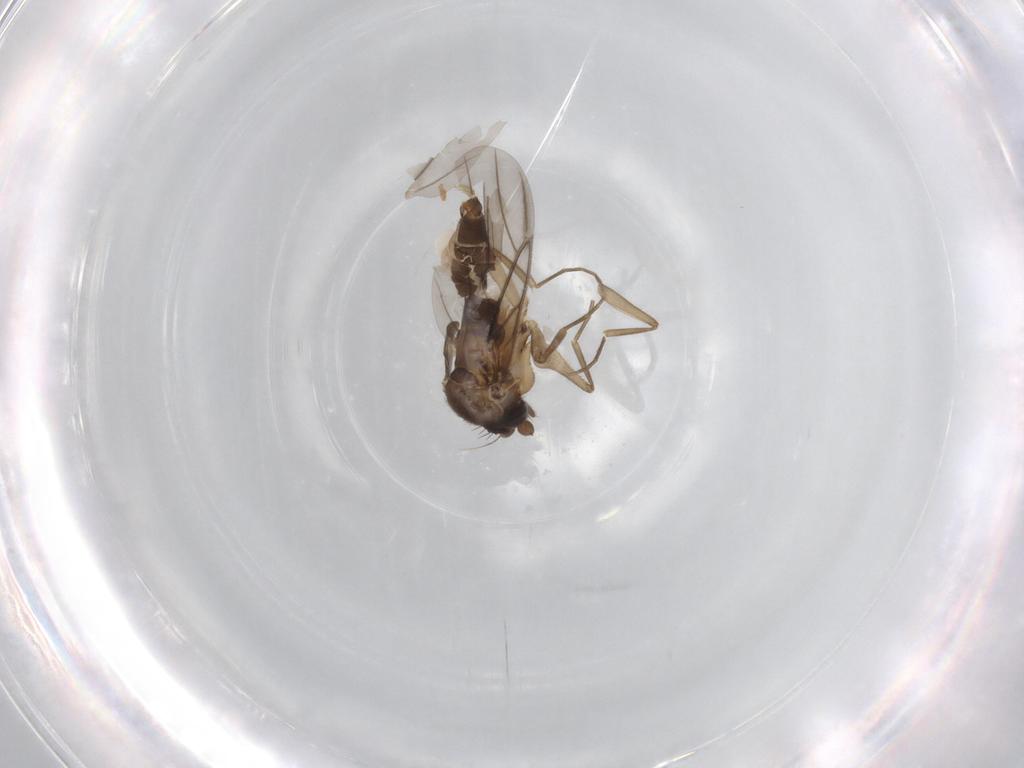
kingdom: Animalia
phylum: Arthropoda
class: Insecta
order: Diptera
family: Phoridae
